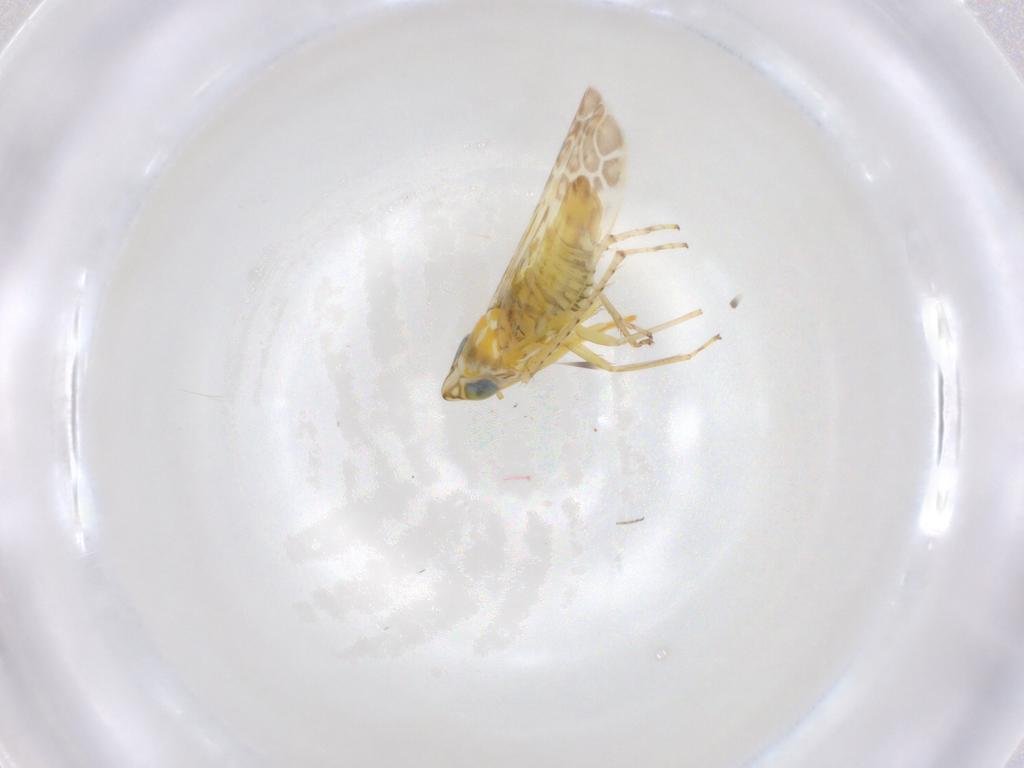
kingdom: Animalia
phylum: Arthropoda
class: Insecta
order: Hemiptera
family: Cicadellidae
